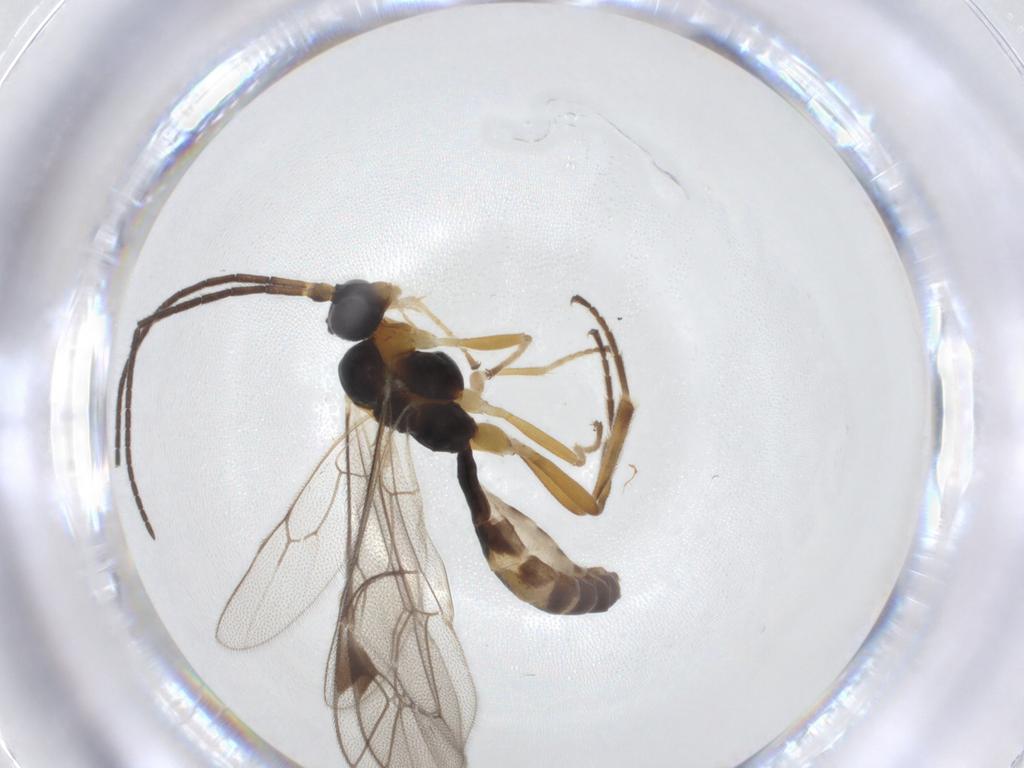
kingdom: Animalia
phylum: Arthropoda
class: Insecta
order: Hymenoptera
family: Ichneumonidae
